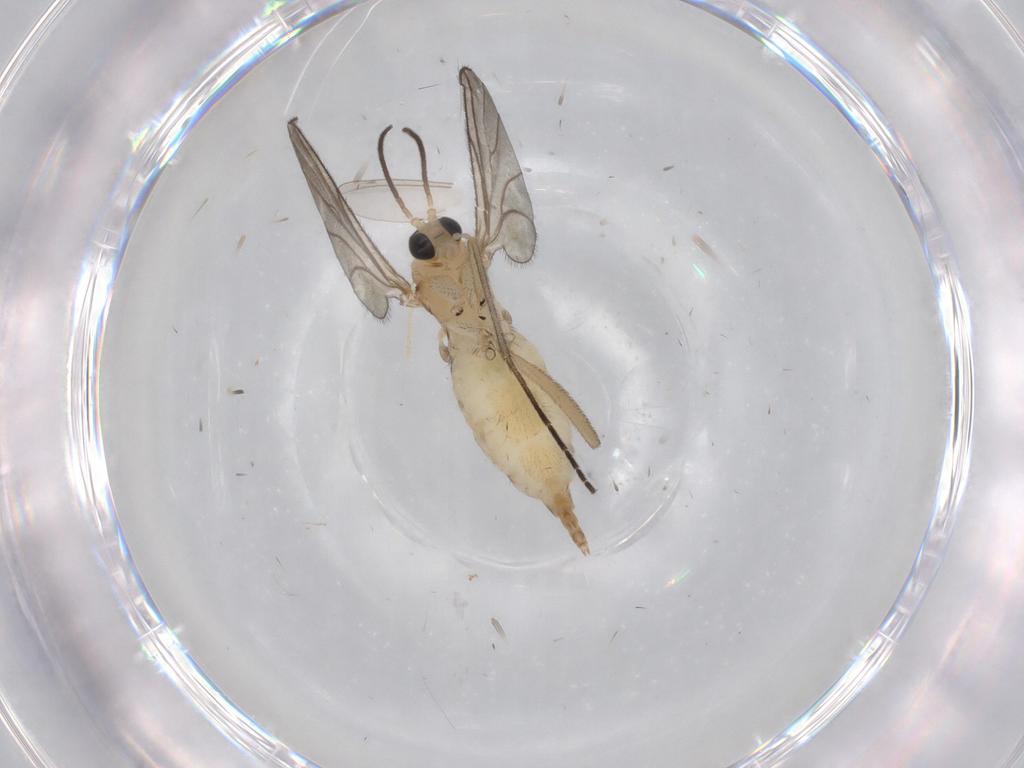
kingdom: Animalia
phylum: Arthropoda
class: Insecta
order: Diptera
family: Sciaridae
